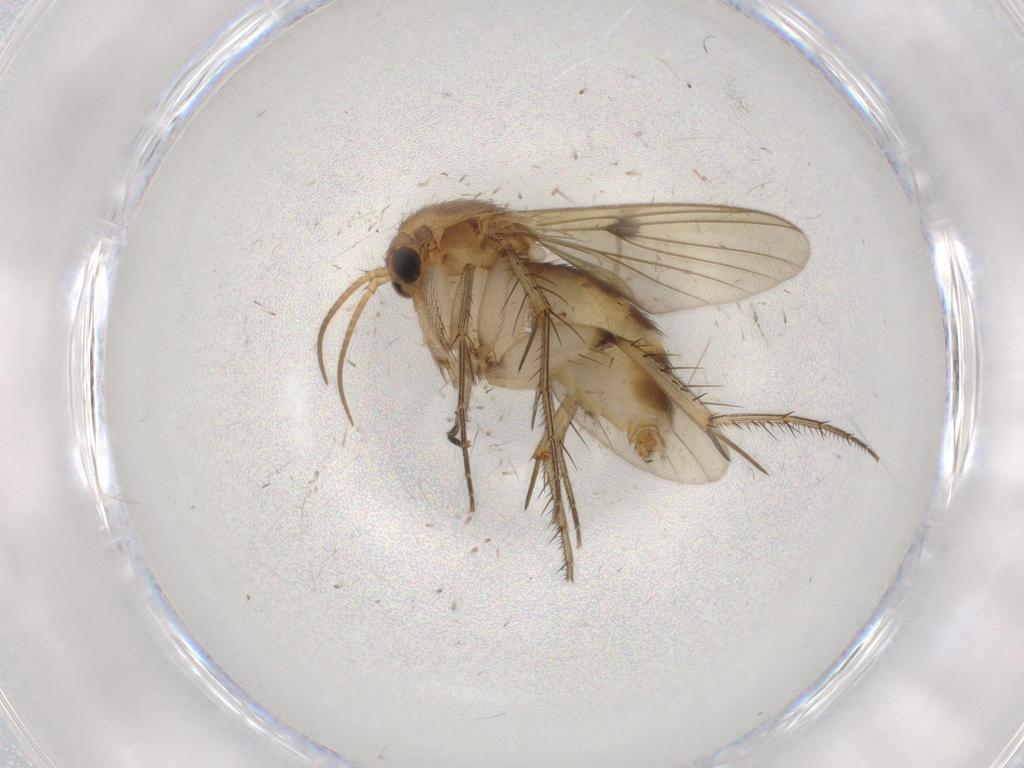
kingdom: Animalia
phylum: Arthropoda
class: Insecta
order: Diptera
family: Psychodidae
